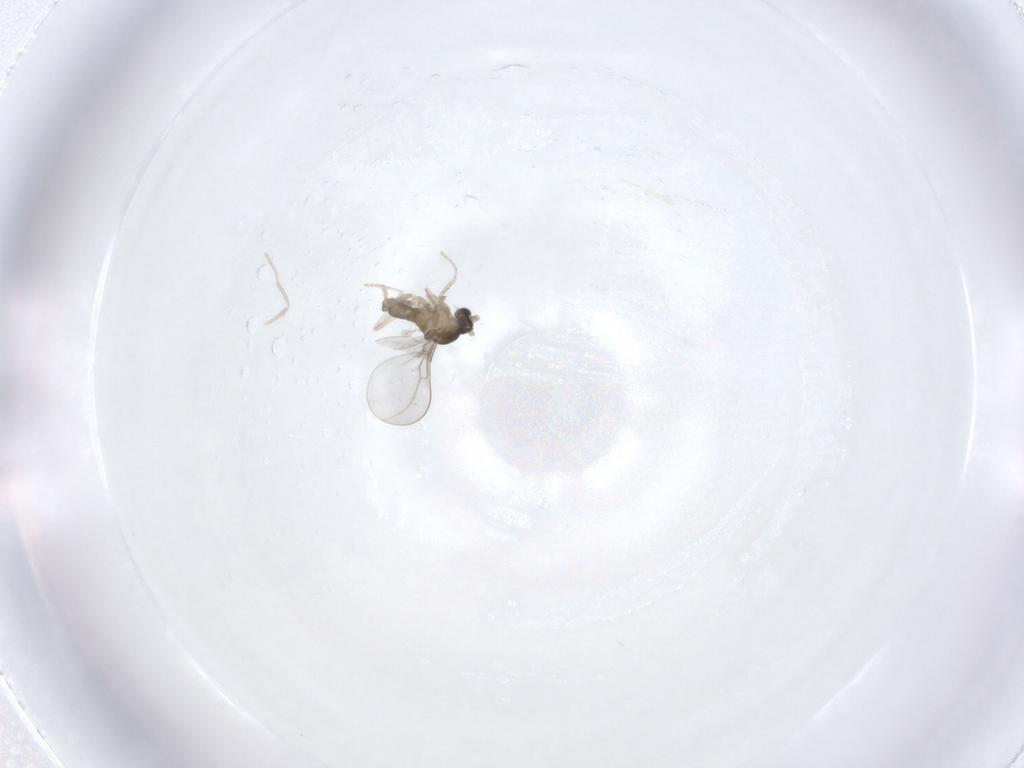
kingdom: Animalia
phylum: Arthropoda
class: Insecta
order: Diptera
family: Cecidomyiidae
